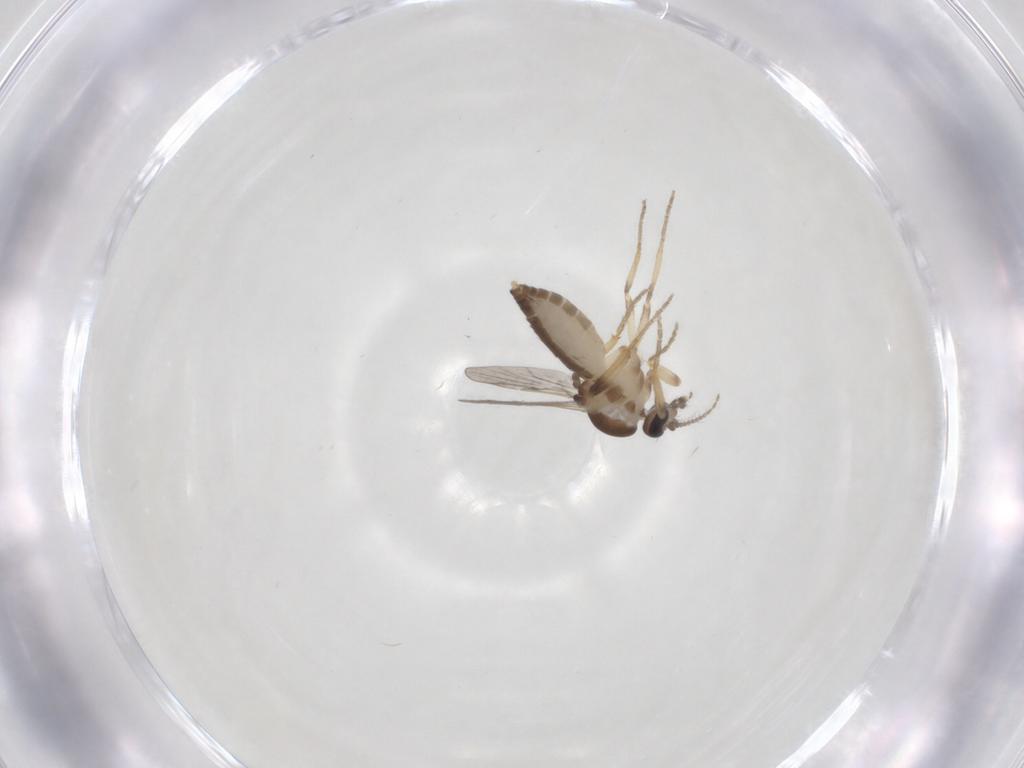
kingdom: Animalia
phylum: Arthropoda
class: Insecta
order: Diptera
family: Ceratopogonidae
